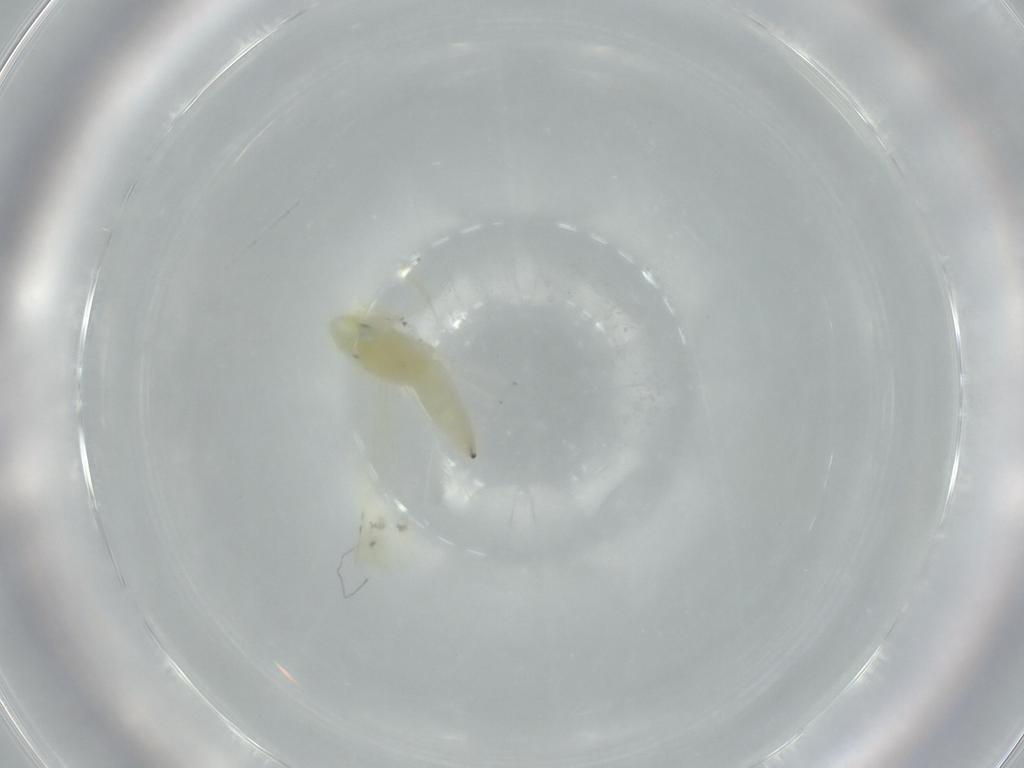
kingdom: Animalia
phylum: Arthropoda
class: Insecta
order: Hemiptera
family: Cicadellidae
